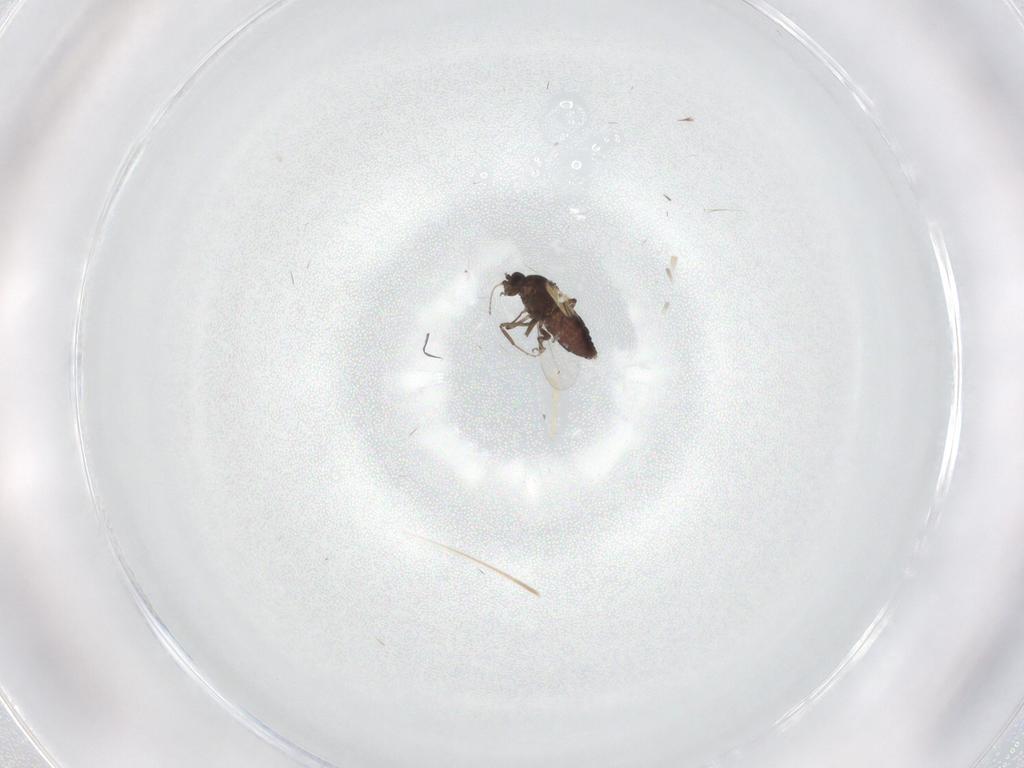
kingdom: Animalia
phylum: Arthropoda
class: Insecta
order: Diptera
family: Ceratopogonidae
